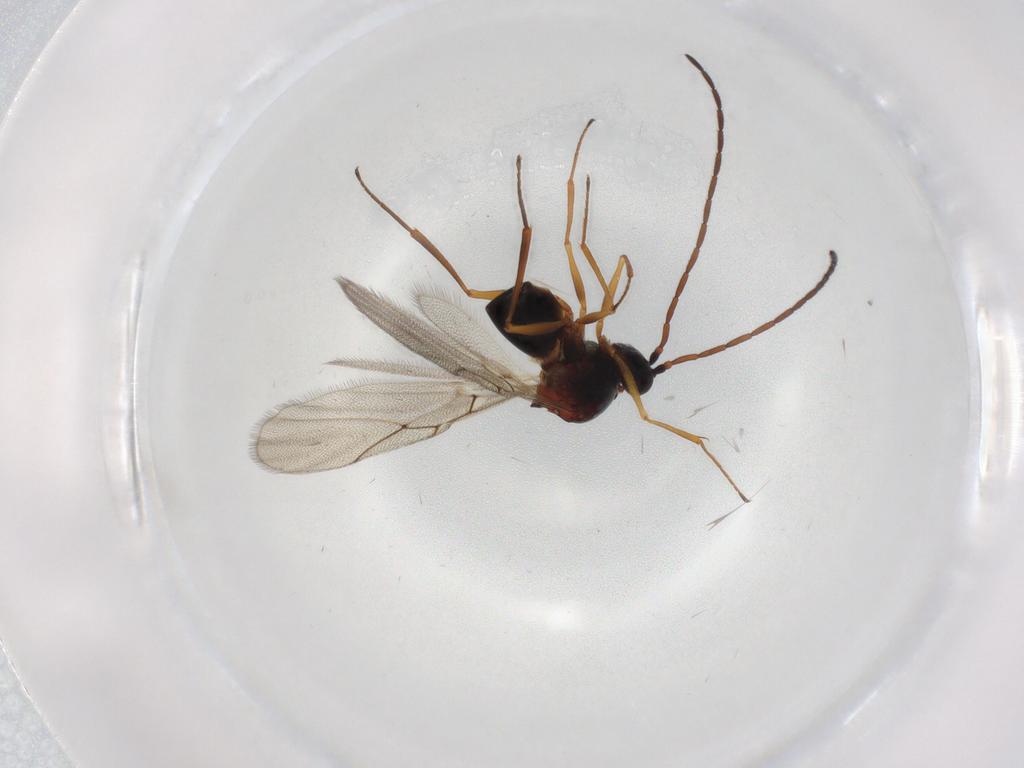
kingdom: Animalia
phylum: Arthropoda
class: Insecta
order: Hymenoptera
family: Figitidae
